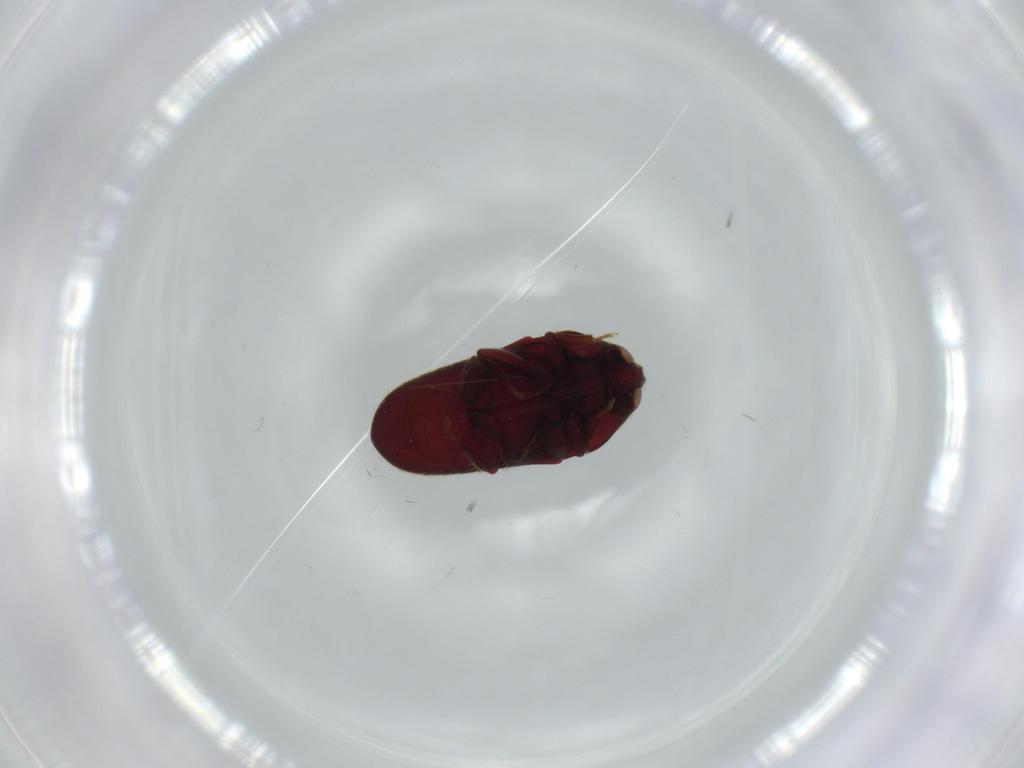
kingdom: Animalia
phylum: Arthropoda
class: Insecta
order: Coleoptera
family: Throscidae
